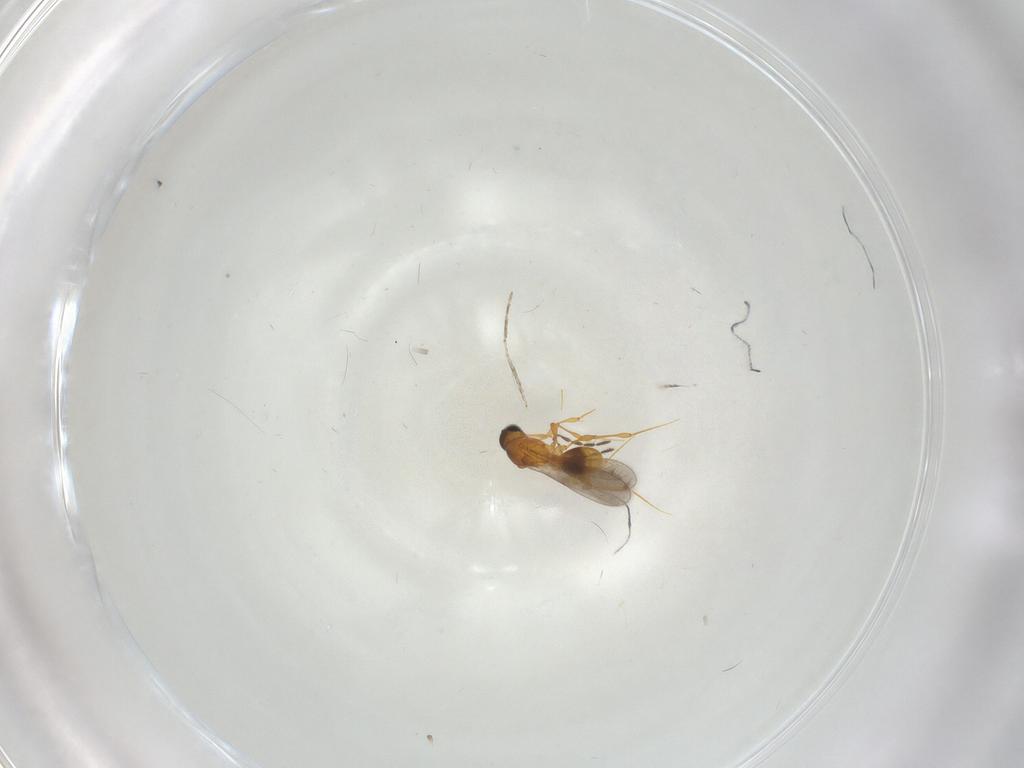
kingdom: Animalia
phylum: Arthropoda
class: Insecta
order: Hymenoptera
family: Platygastridae
